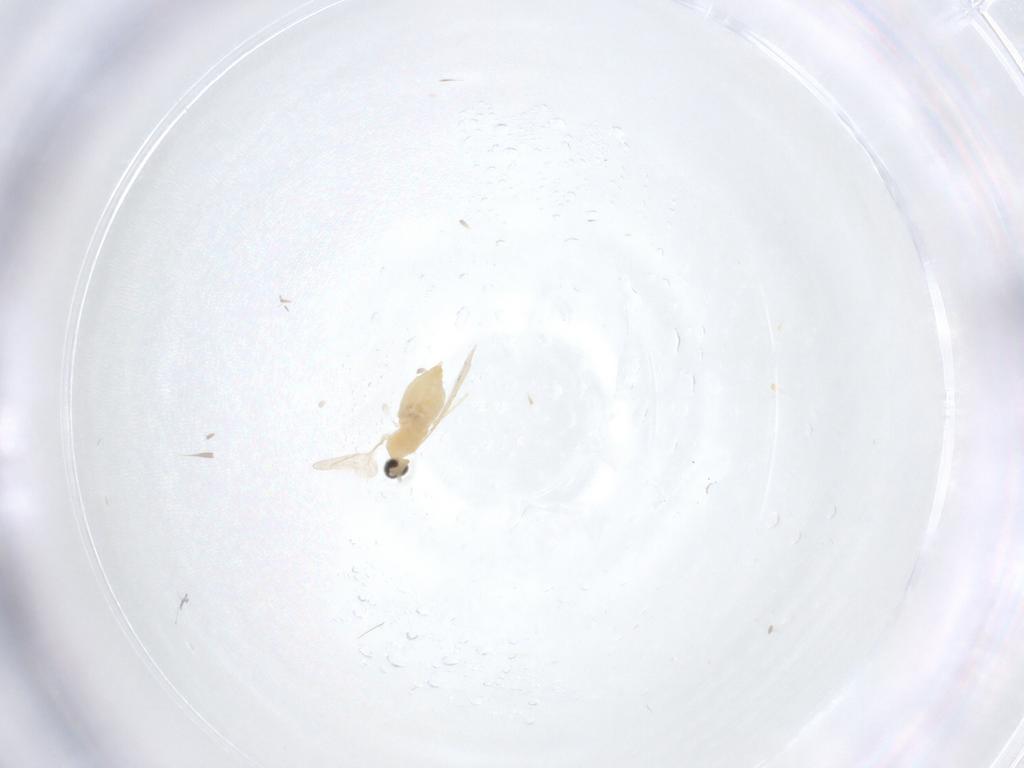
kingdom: Animalia
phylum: Arthropoda
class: Insecta
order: Diptera
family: Cecidomyiidae
